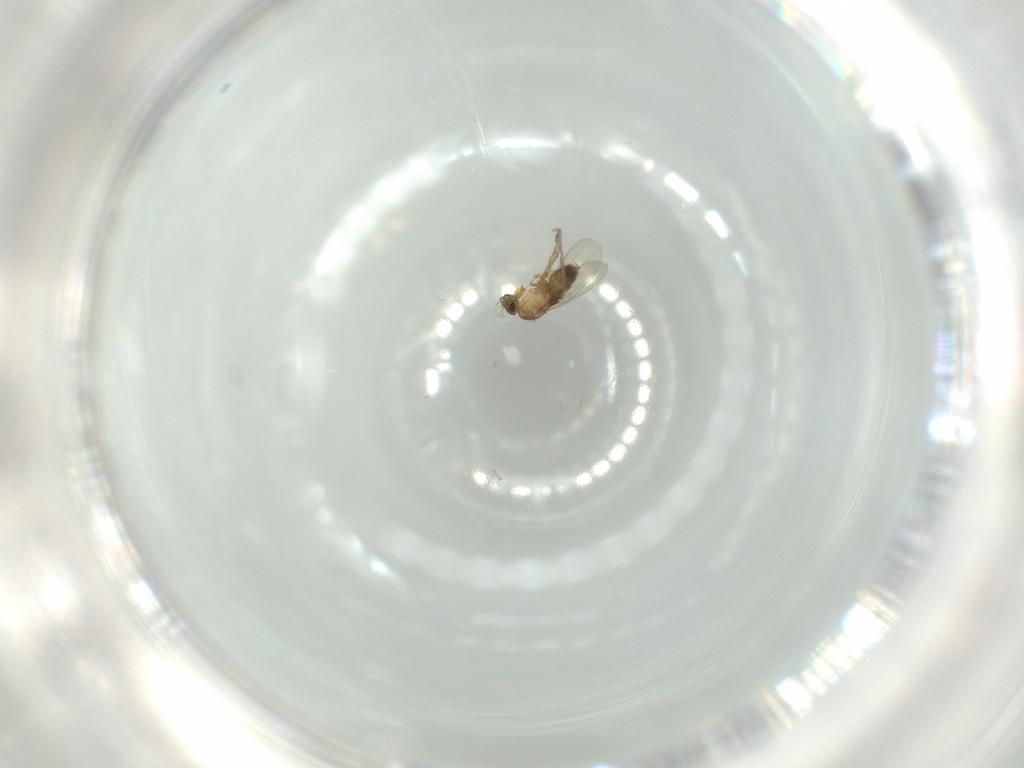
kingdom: Animalia
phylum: Arthropoda
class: Insecta
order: Diptera
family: Phoridae
